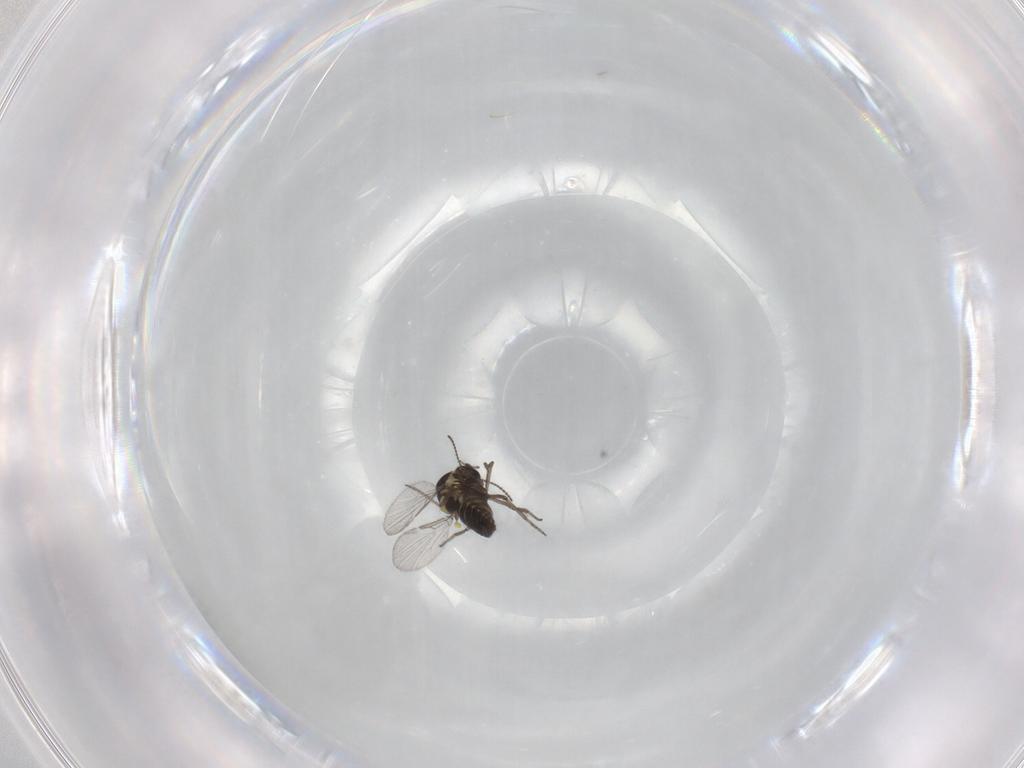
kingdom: Animalia
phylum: Arthropoda
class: Insecta
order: Diptera
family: Ceratopogonidae
